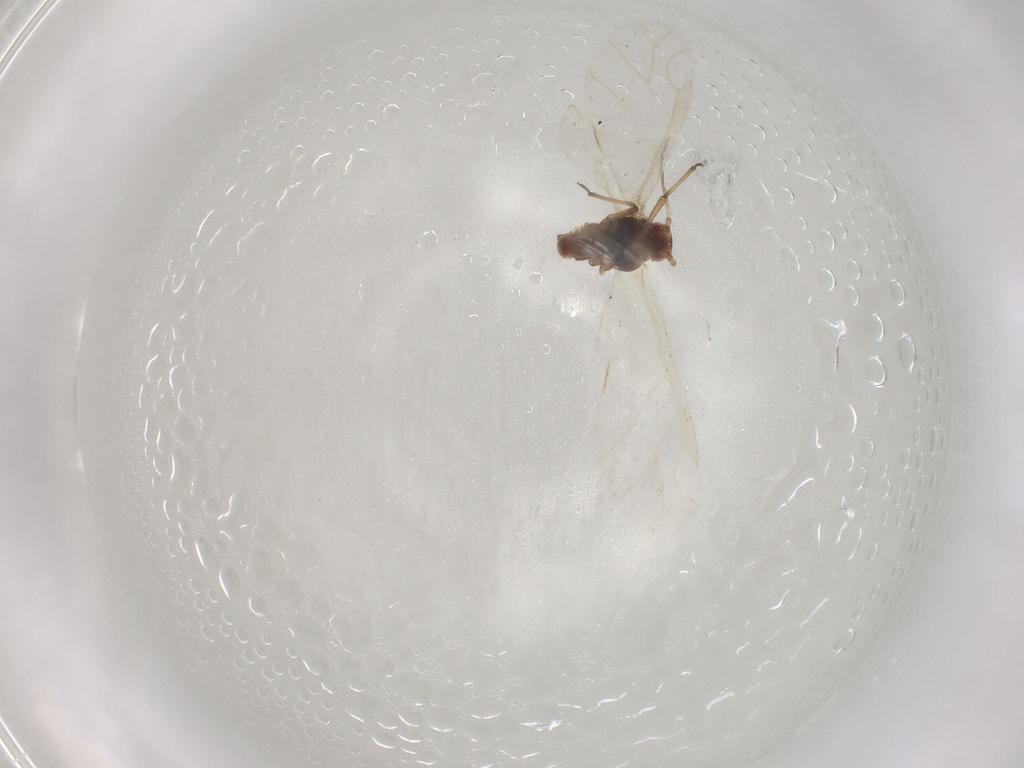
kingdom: Animalia
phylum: Arthropoda
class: Insecta
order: Hemiptera
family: Aphididae
